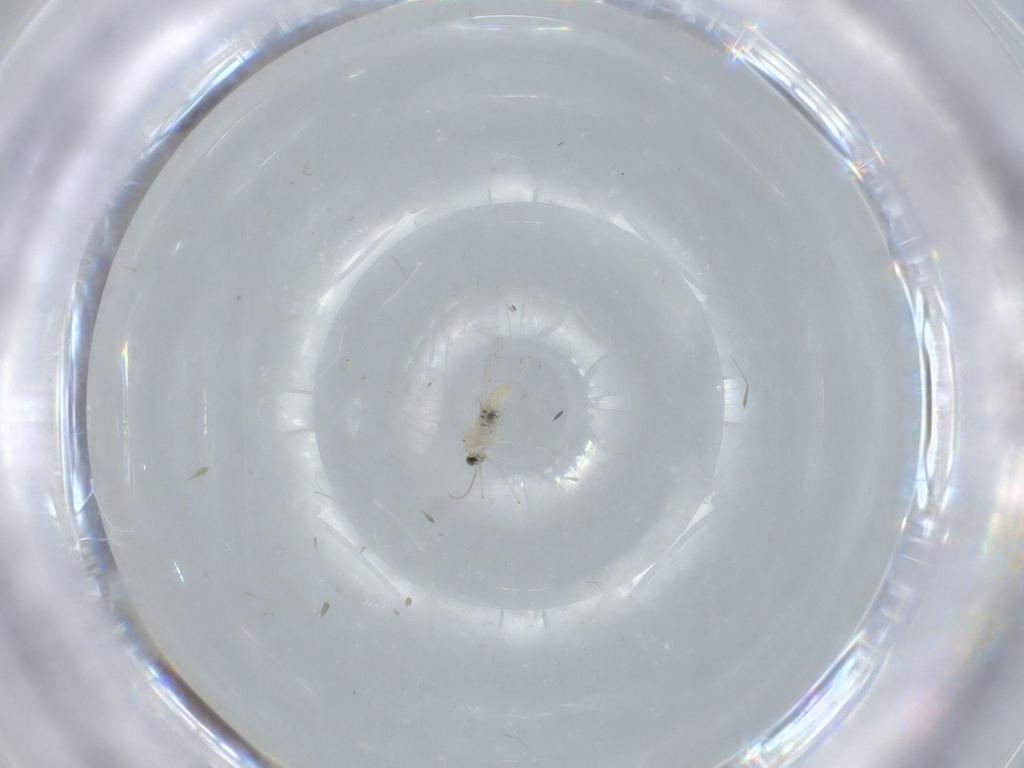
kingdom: Animalia
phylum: Arthropoda
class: Insecta
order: Diptera
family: Cecidomyiidae
